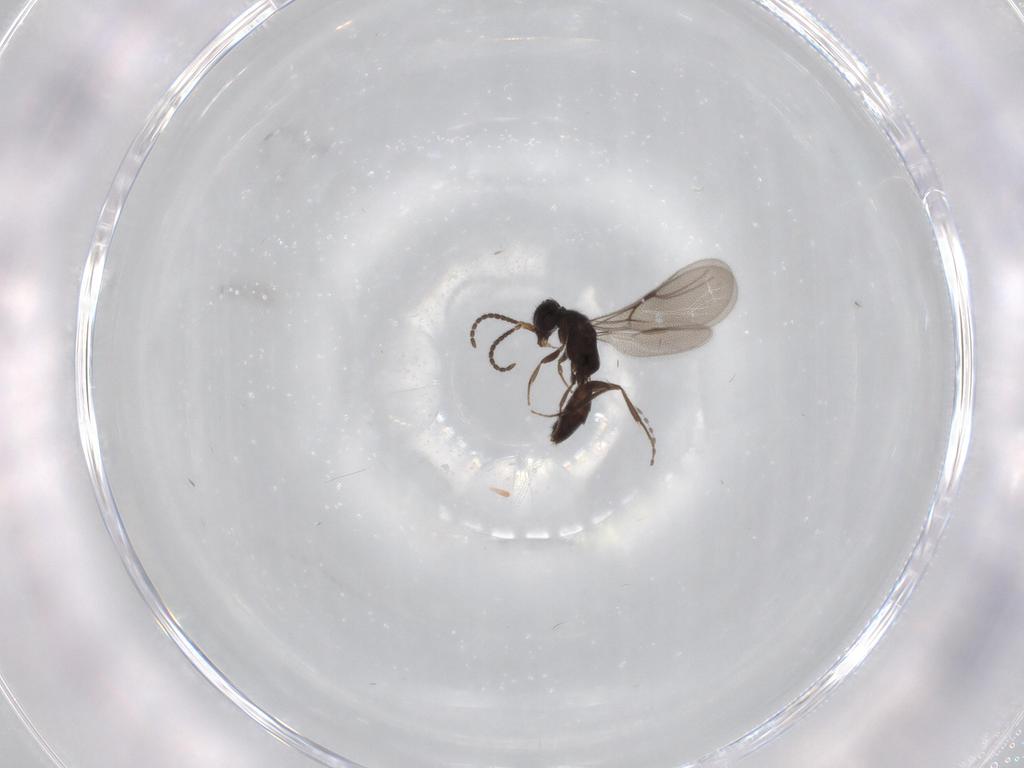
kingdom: Animalia
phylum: Arthropoda
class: Insecta
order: Hymenoptera
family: Bethylidae
